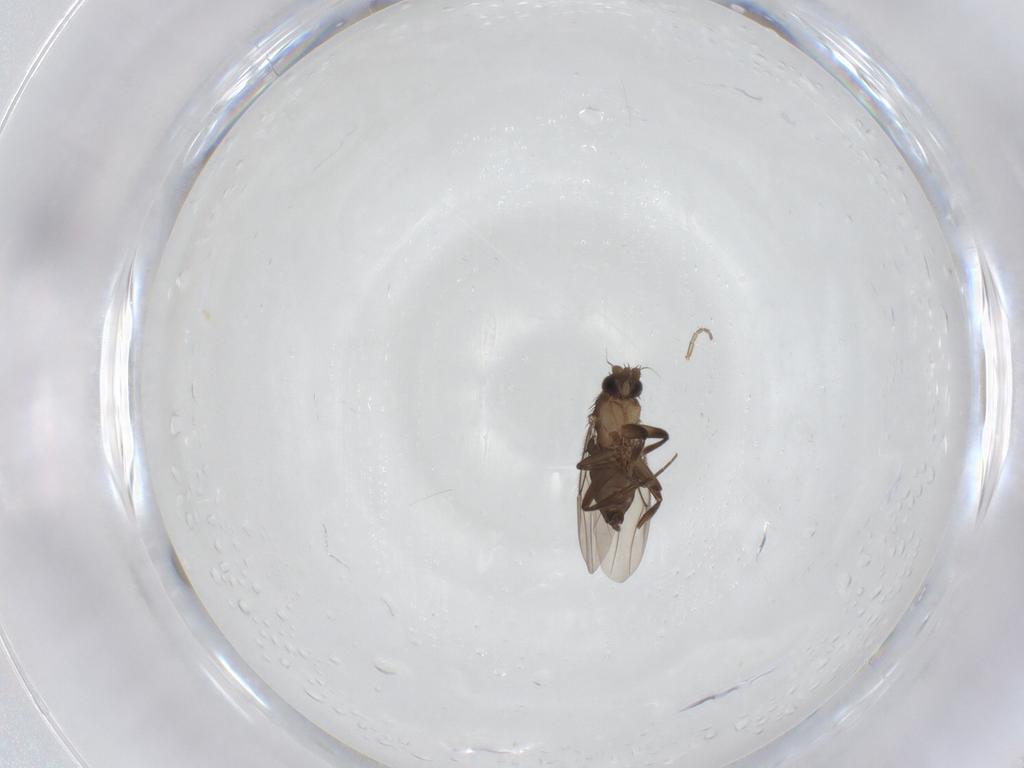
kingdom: Animalia
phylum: Arthropoda
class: Insecta
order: Diptera
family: Phoridae
